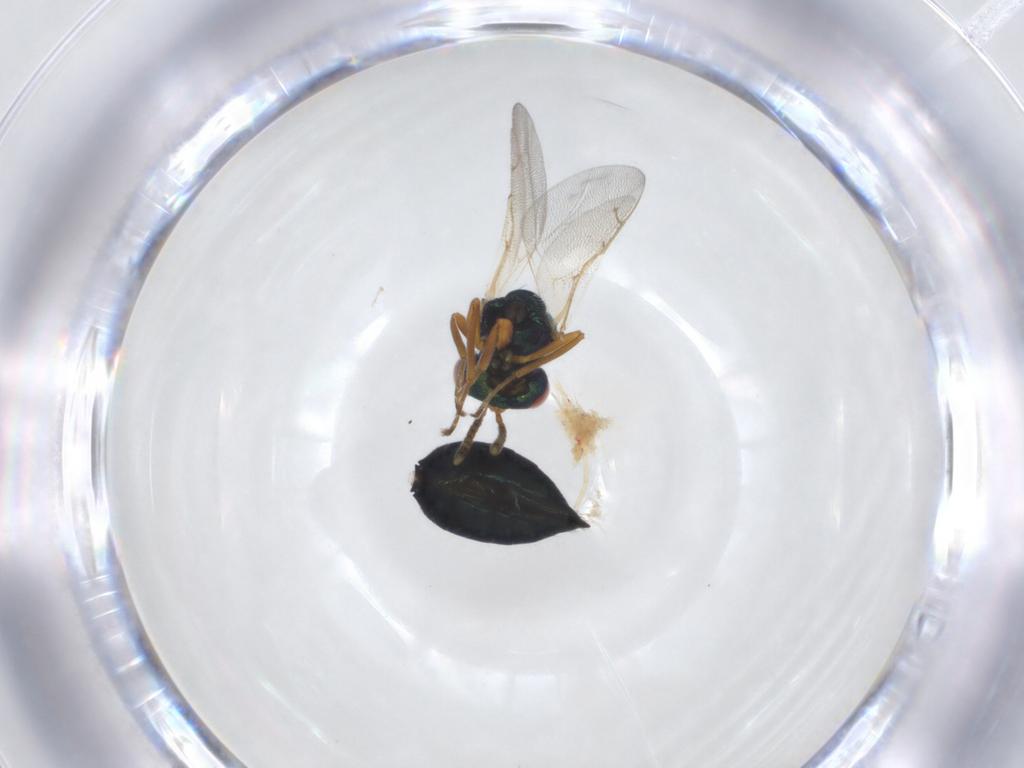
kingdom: Animalia
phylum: Arthropoda
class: Insecta
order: Hymenoptera
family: Pteromalidae
